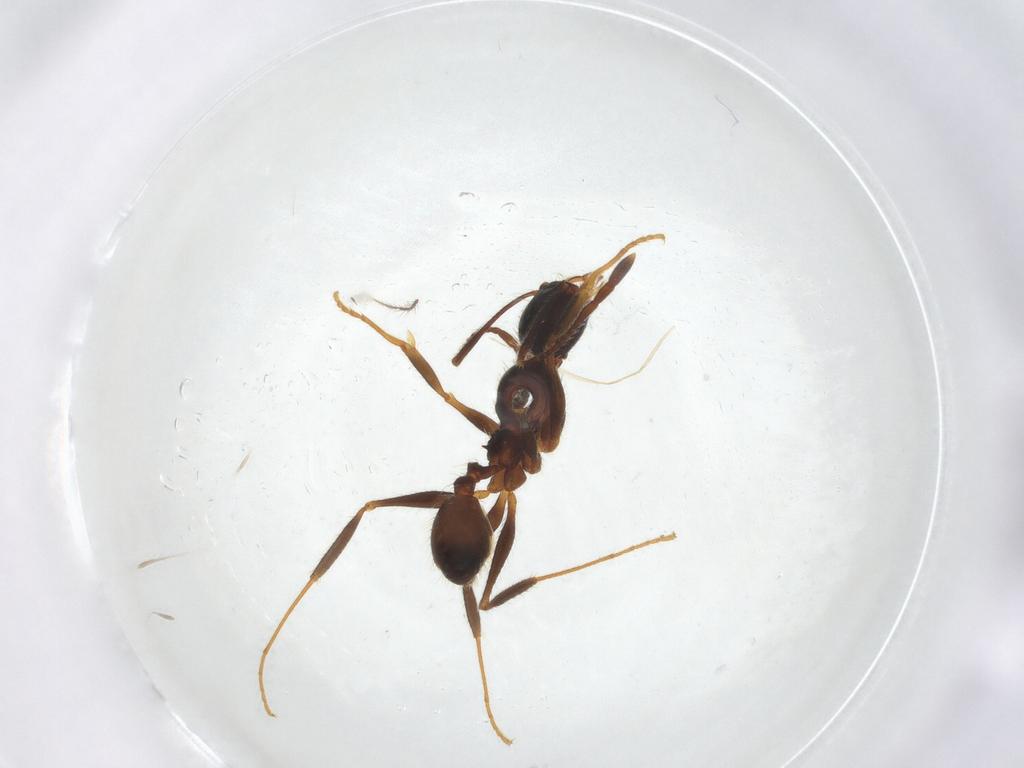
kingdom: Animalia
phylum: Arthropoda
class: Insecta
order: Hymenoptera
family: Formicidae
